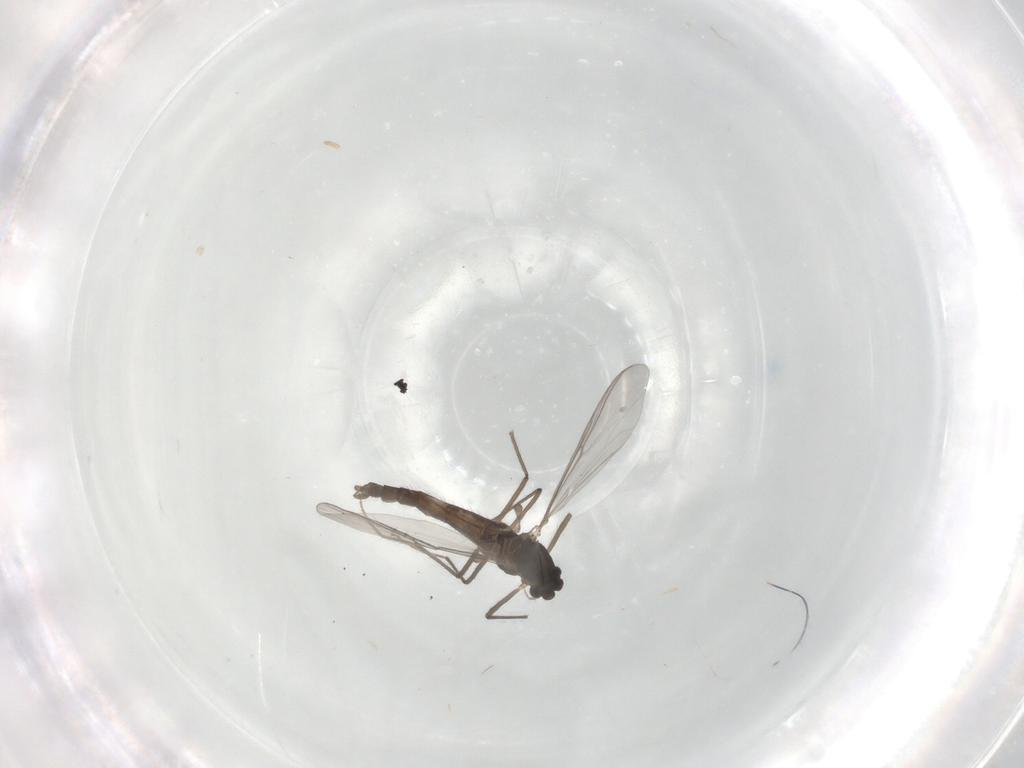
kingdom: Animalia
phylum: Arthropoda
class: Insecta
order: Diptera
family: Chironomidae
